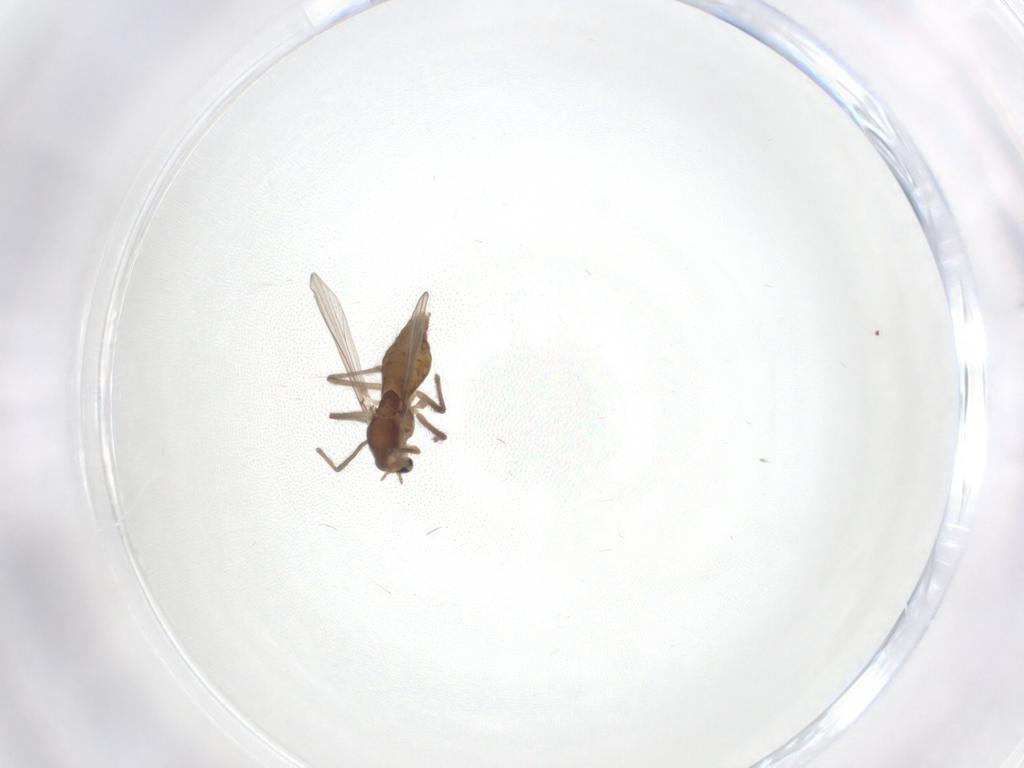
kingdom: Animalia
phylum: Arthropoda
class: Insecta
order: Diptera
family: Chironomidae
